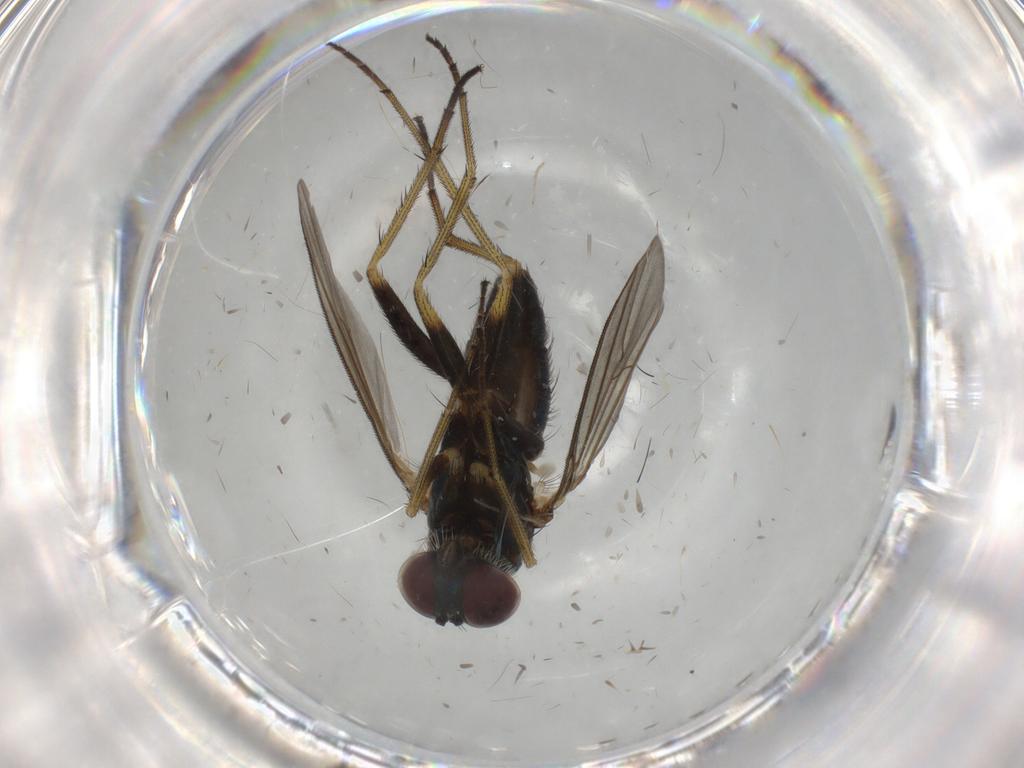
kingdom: Animalia
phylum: Arthropoda
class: Insecta
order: Diptera
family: Dolichopodidae
